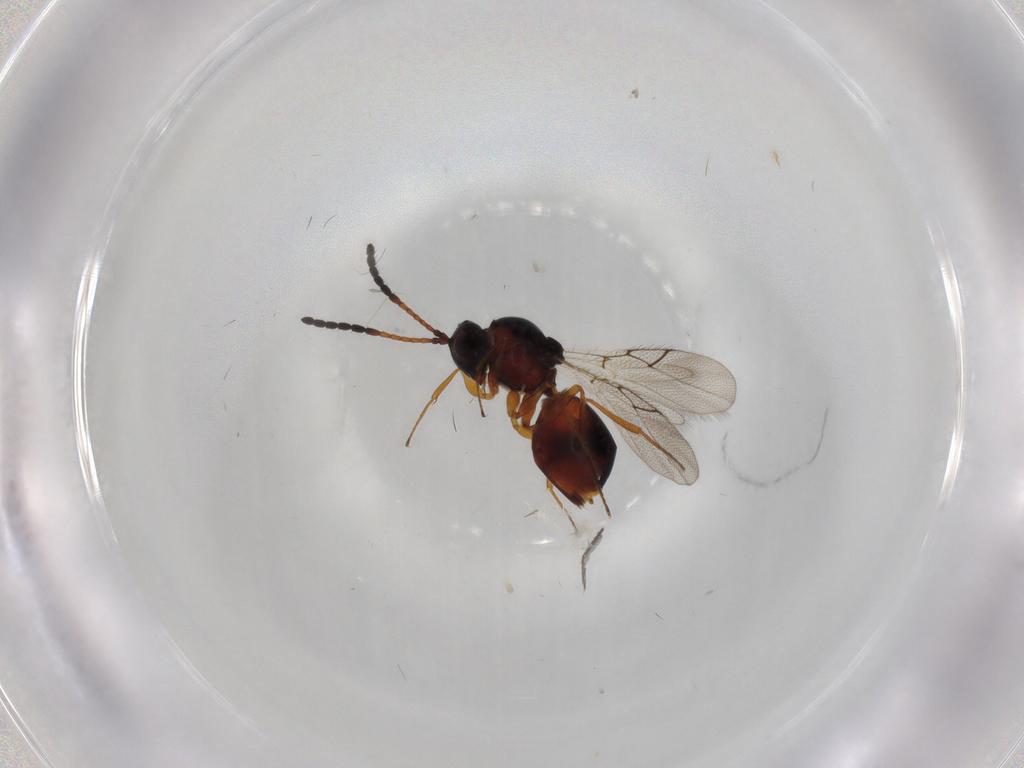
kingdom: Animalia
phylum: Arthropoda
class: Insecta
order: Hymenoptera
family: Figitidae
